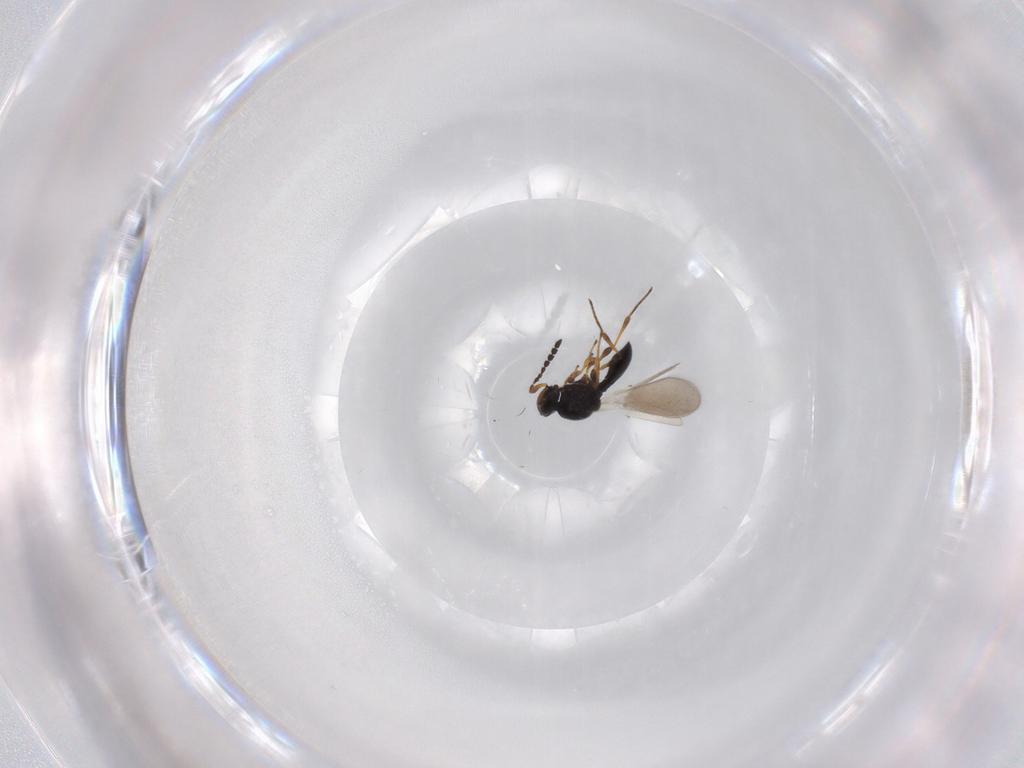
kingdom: Animalia
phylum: Arthropoda
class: Insecta
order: Hymenoptera
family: Platygastridae
